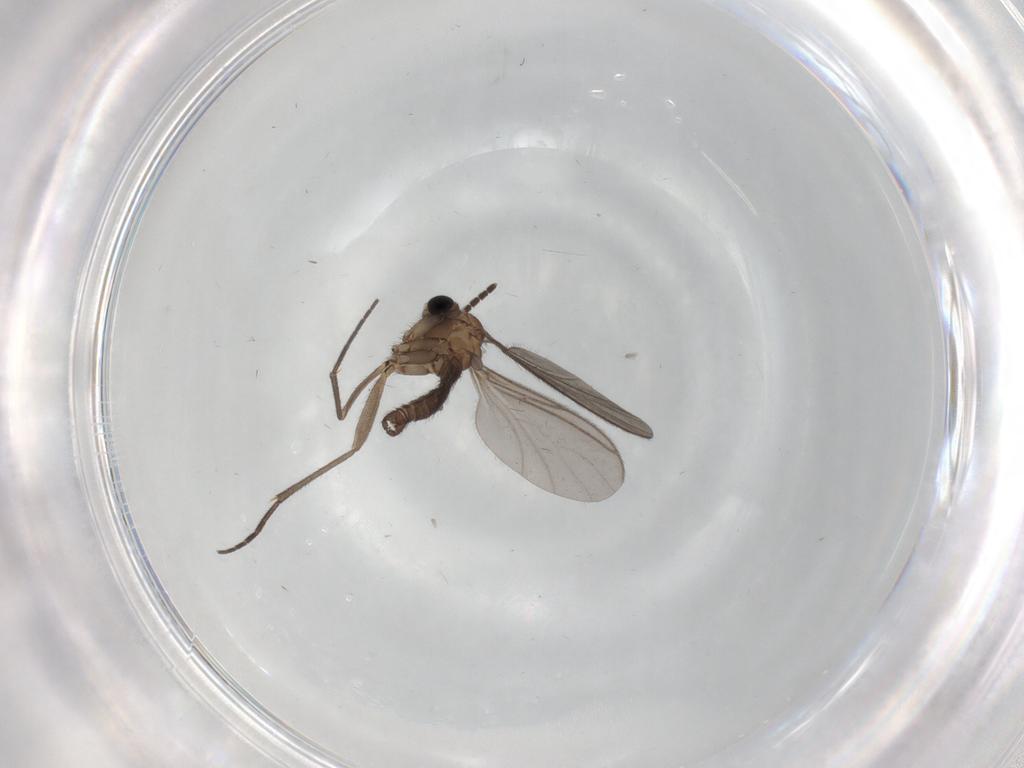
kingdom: Animalia
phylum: Arthropoda
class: Insecta
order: Diptera
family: Sciaridae
